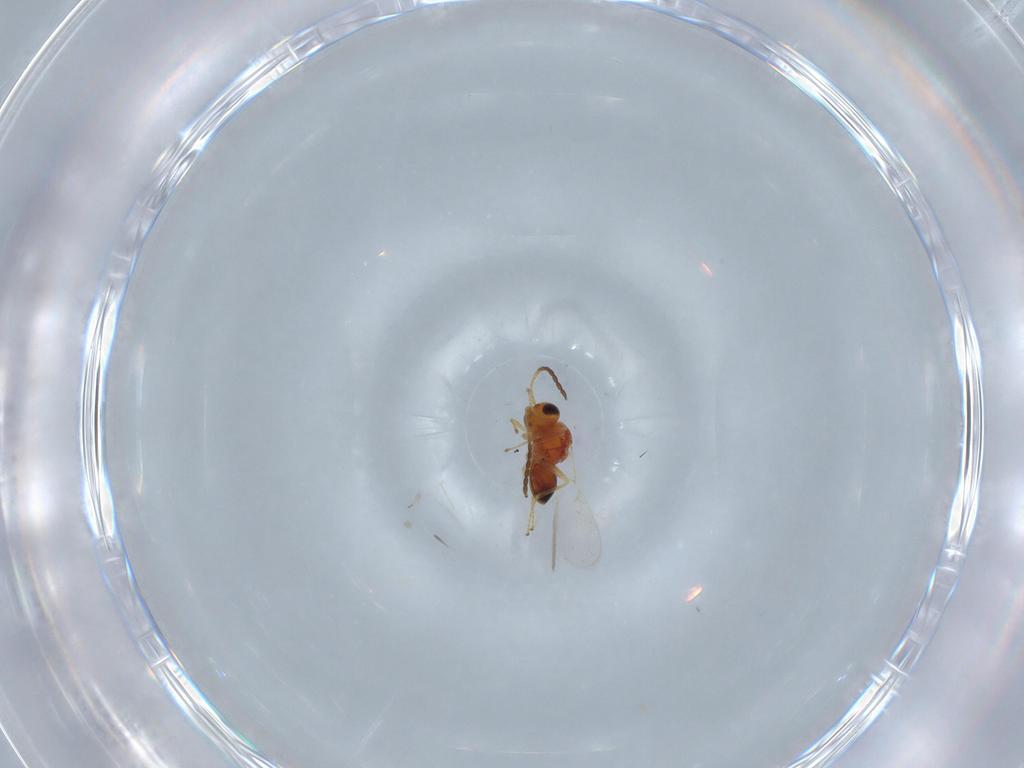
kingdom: Animalia
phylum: Arthropoda
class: Insecta
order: Hymenoptera
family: Figitidae
